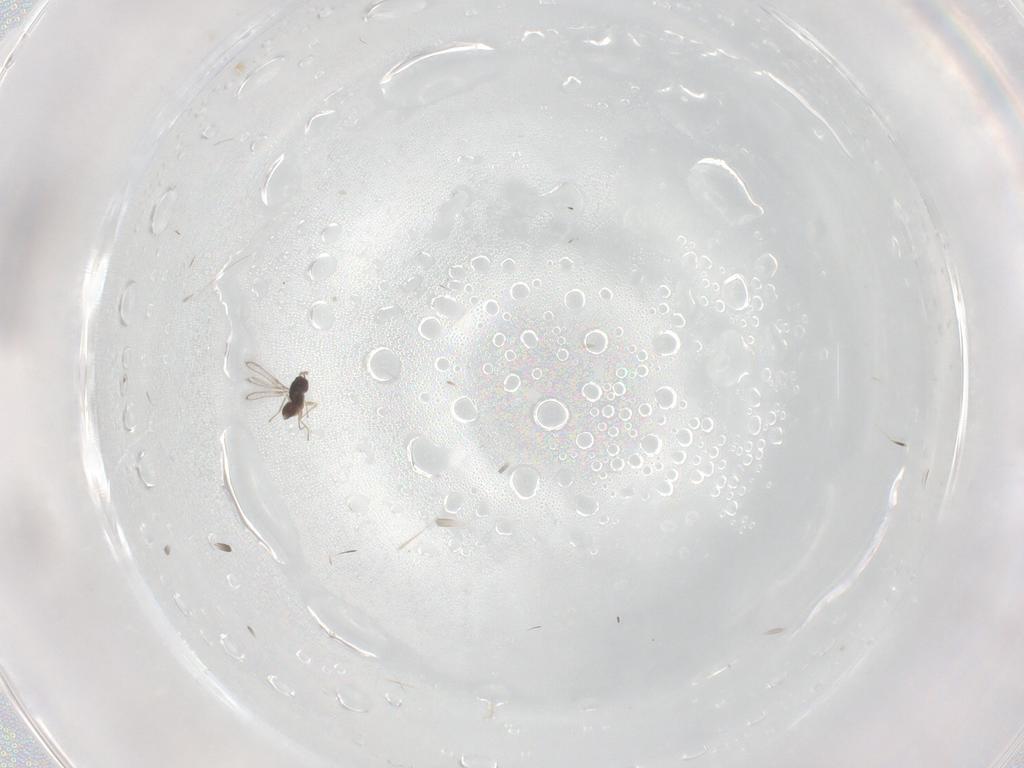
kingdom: Animalia
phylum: Arthropoda
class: Insecta
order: Hymenoptera
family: Mymaridae
